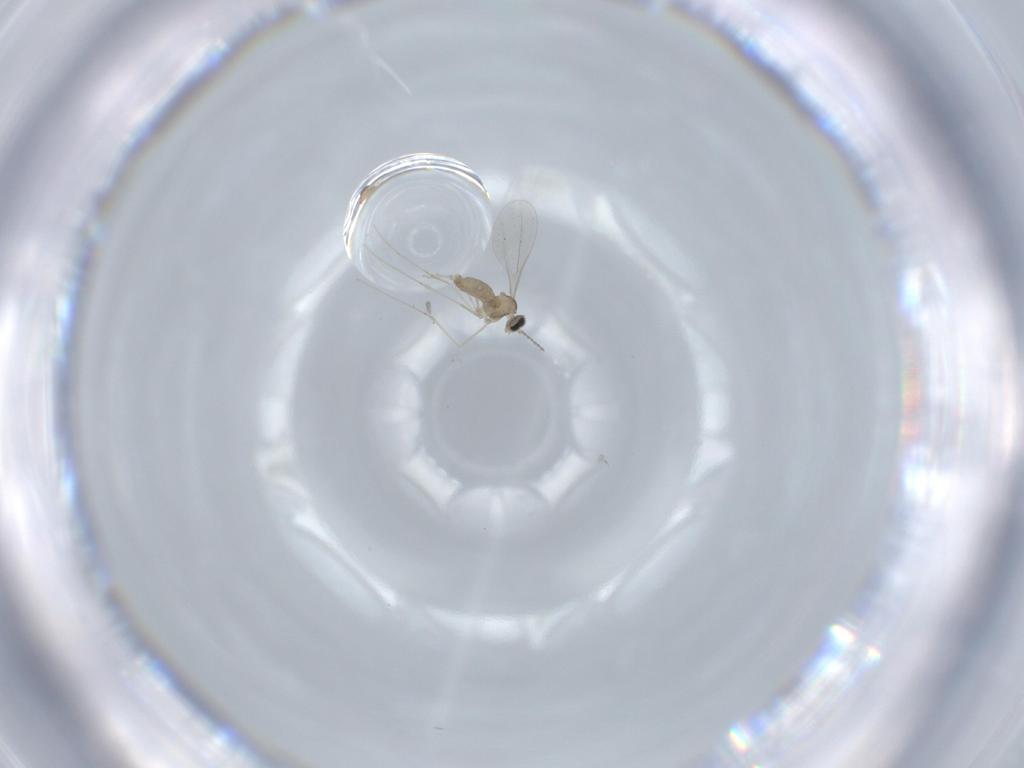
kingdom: Animalia
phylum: Arthropoda
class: Insecta
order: Diptera
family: Cecidomyiidae
